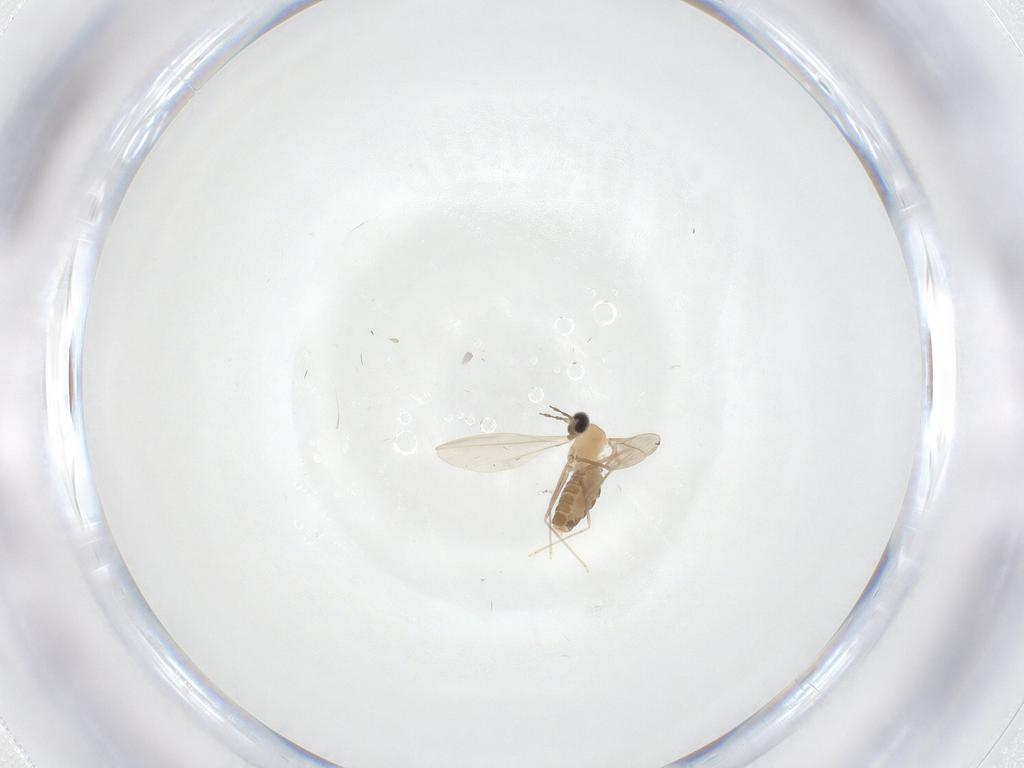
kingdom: Animalia
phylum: Arthropoda
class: Insecta
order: Diptera
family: Cecidomyiidae
